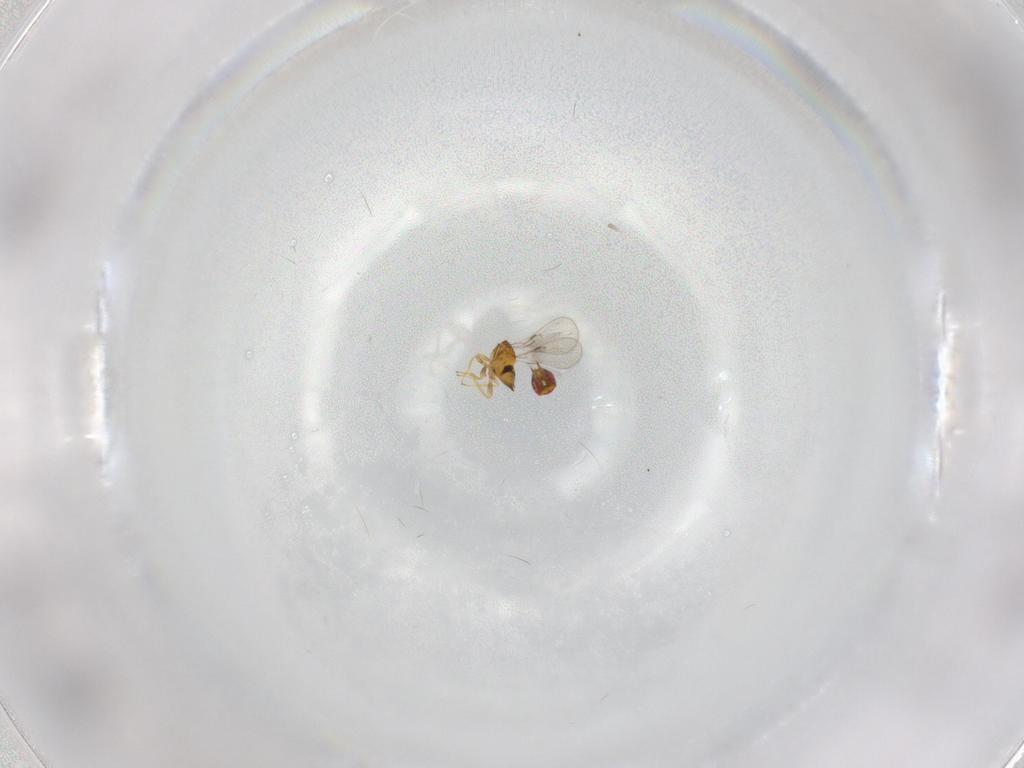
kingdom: Animalia
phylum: Arthropoda
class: Insecta
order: Hymenoptera
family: Trichogrammatidae
